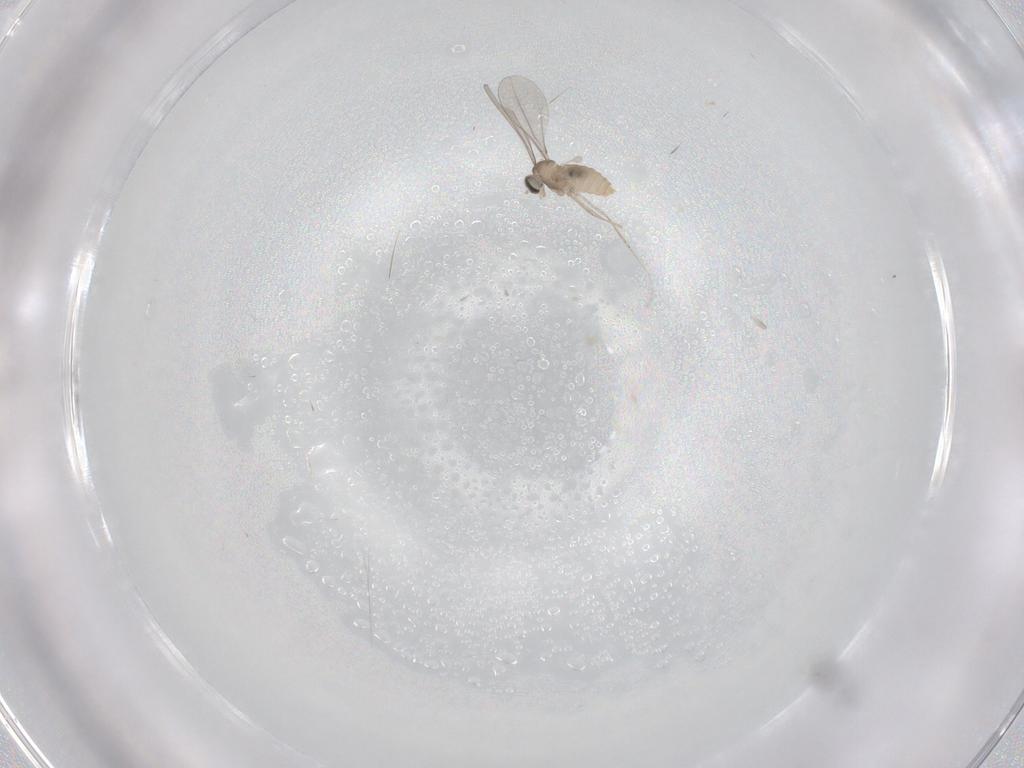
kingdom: Animalia
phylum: Arthropoda
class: Insecta
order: Diptera
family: Cecidomyiidae
